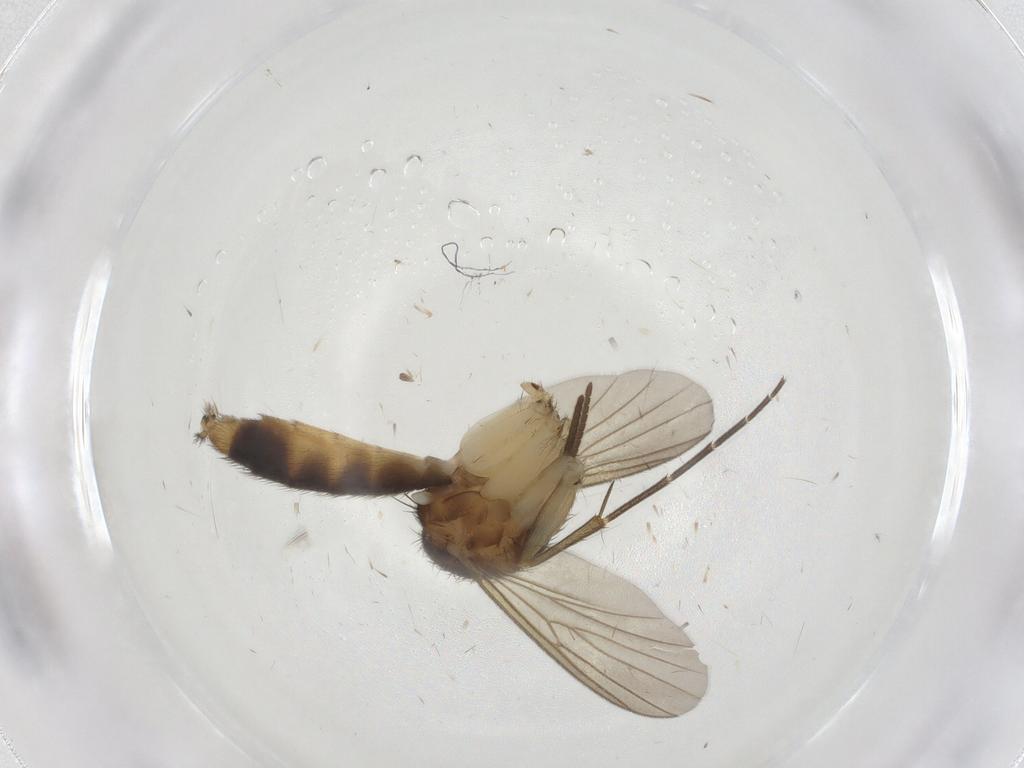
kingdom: Animalia
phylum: Arthropoda
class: Insecta
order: Diptera
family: Mycetophilidae
